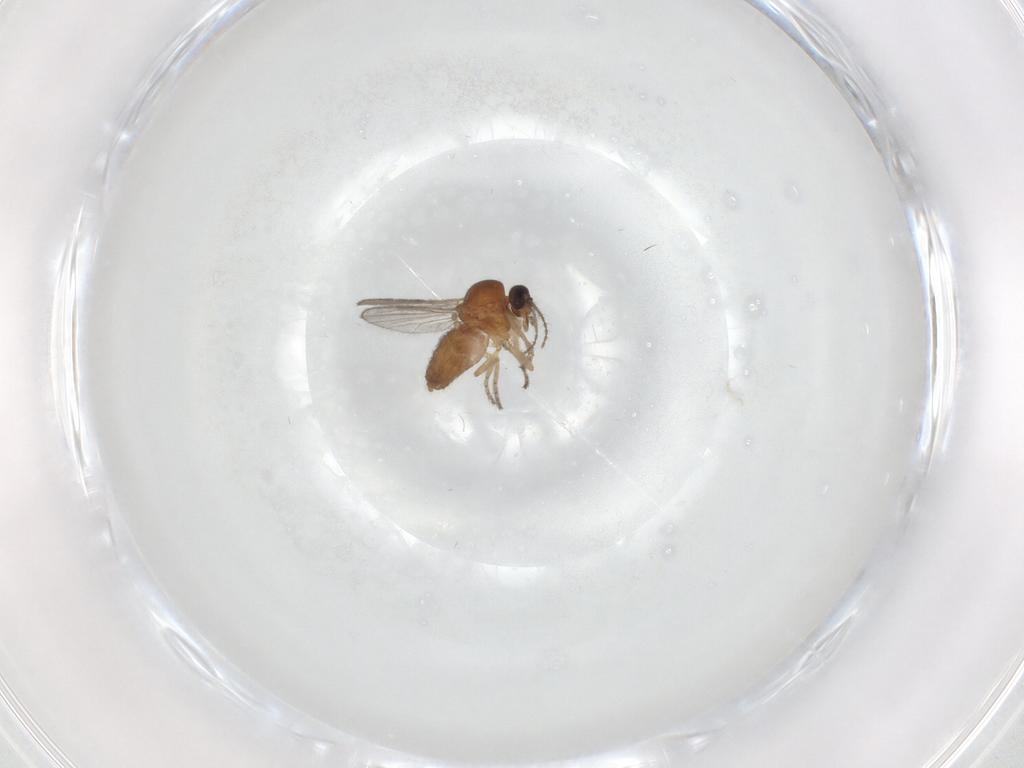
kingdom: Animalia
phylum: Arthropoda
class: Insecta
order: Diptera
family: Ceratopogonidae
